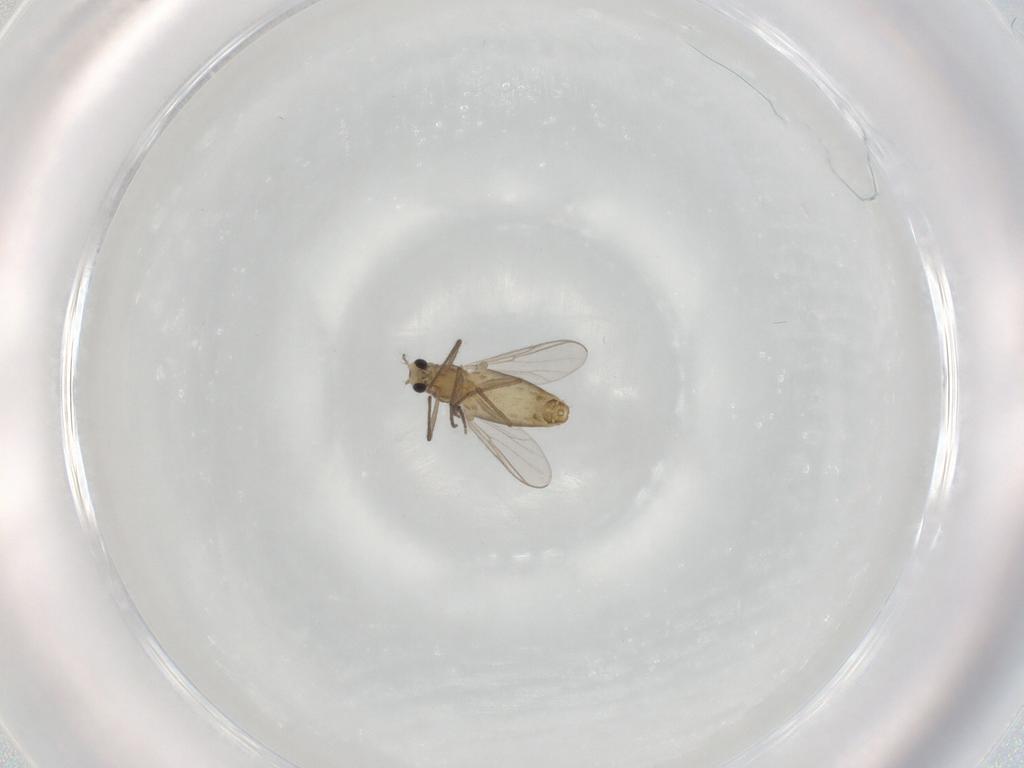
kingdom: Animalia
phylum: Arthropoda
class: Insecta
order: Diptera
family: Chironomidae
